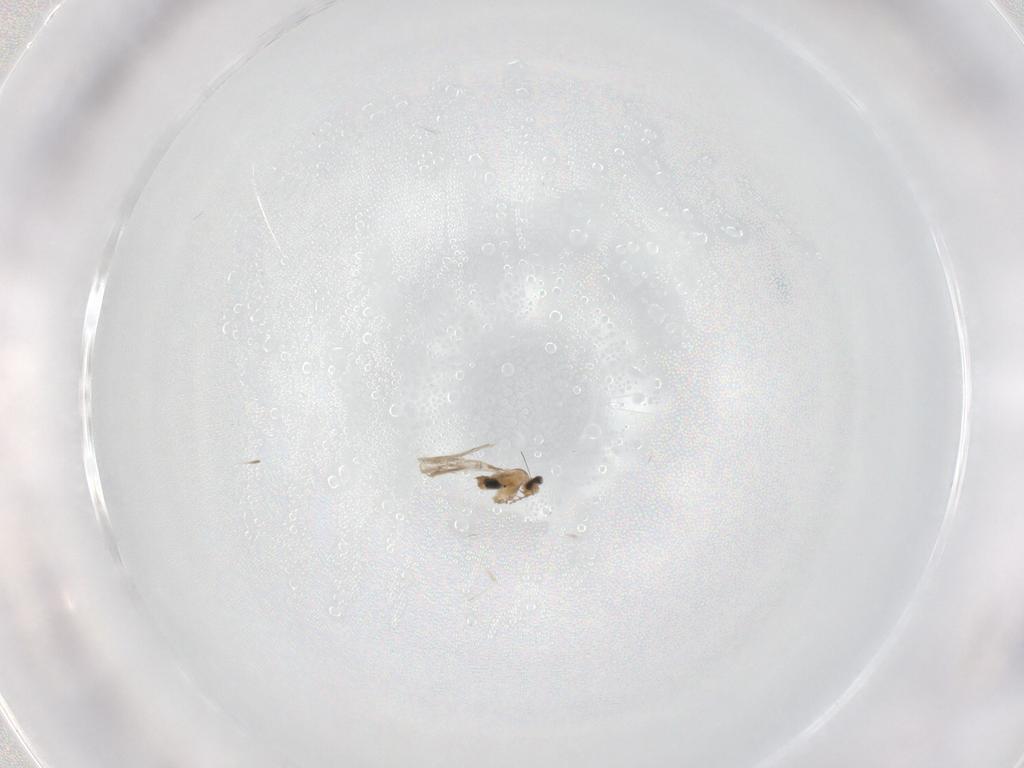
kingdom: Animalia
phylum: Arthropoda
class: Insecta
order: Diptera
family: Cecidomyiidae
